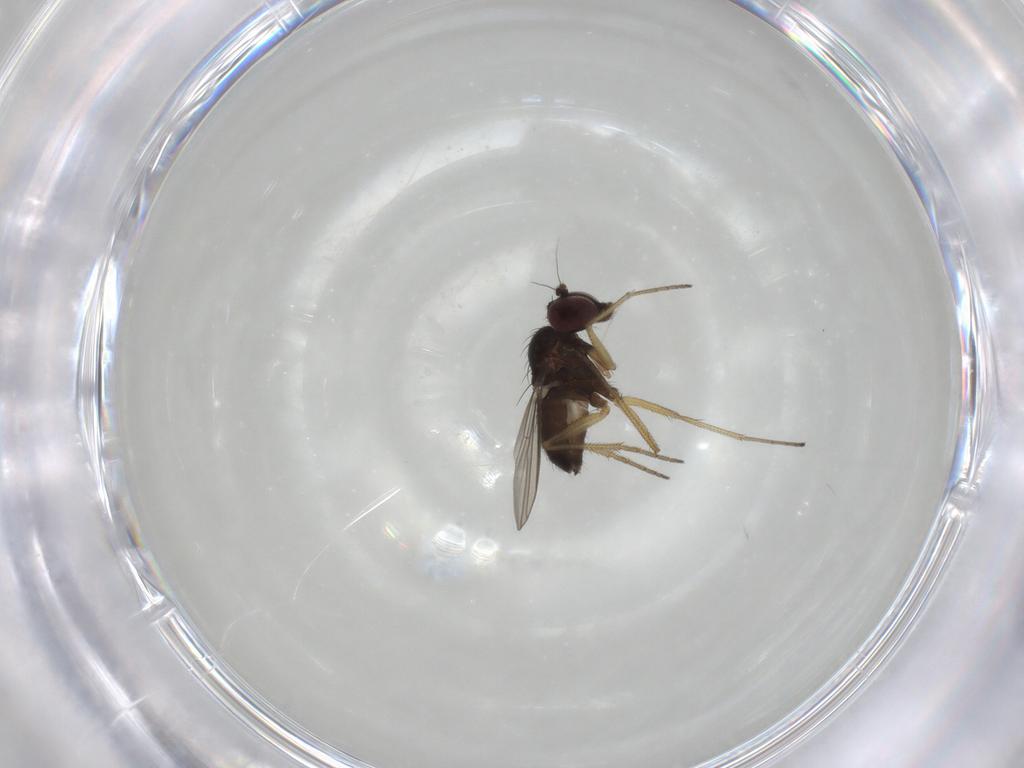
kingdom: Animalia
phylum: Arthropoda
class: Insecta
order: Diptera
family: Dolichopodidae
